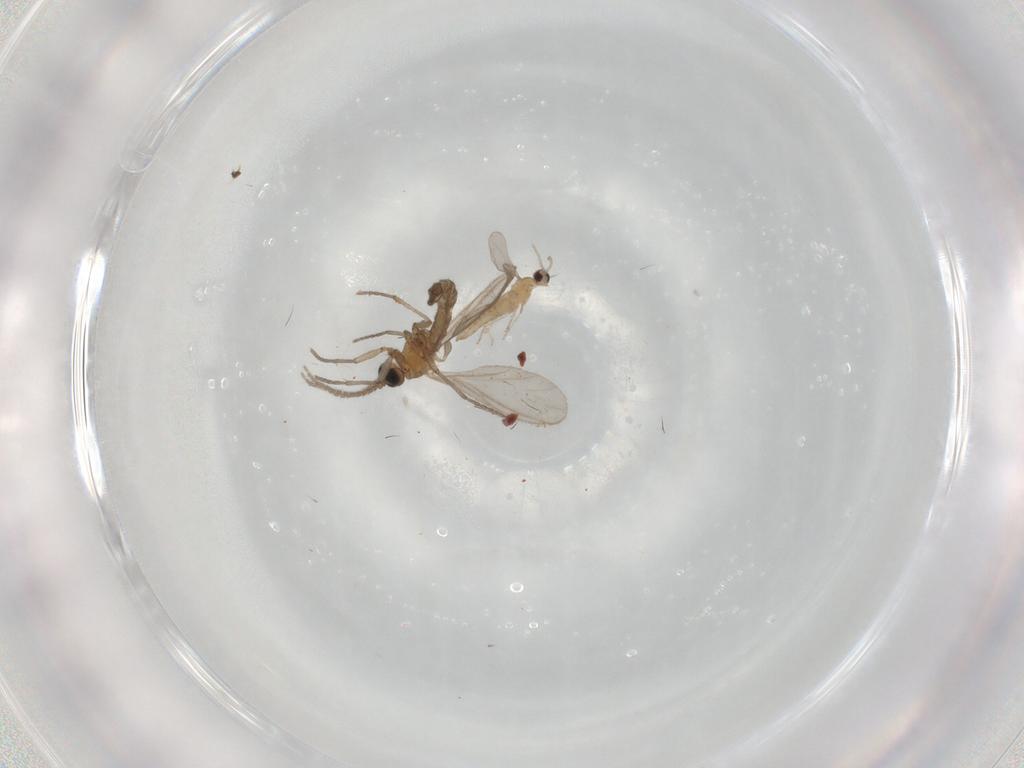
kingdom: Animalia
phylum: Arthropoda
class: Insecta
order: Diptera
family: Sciaridae
